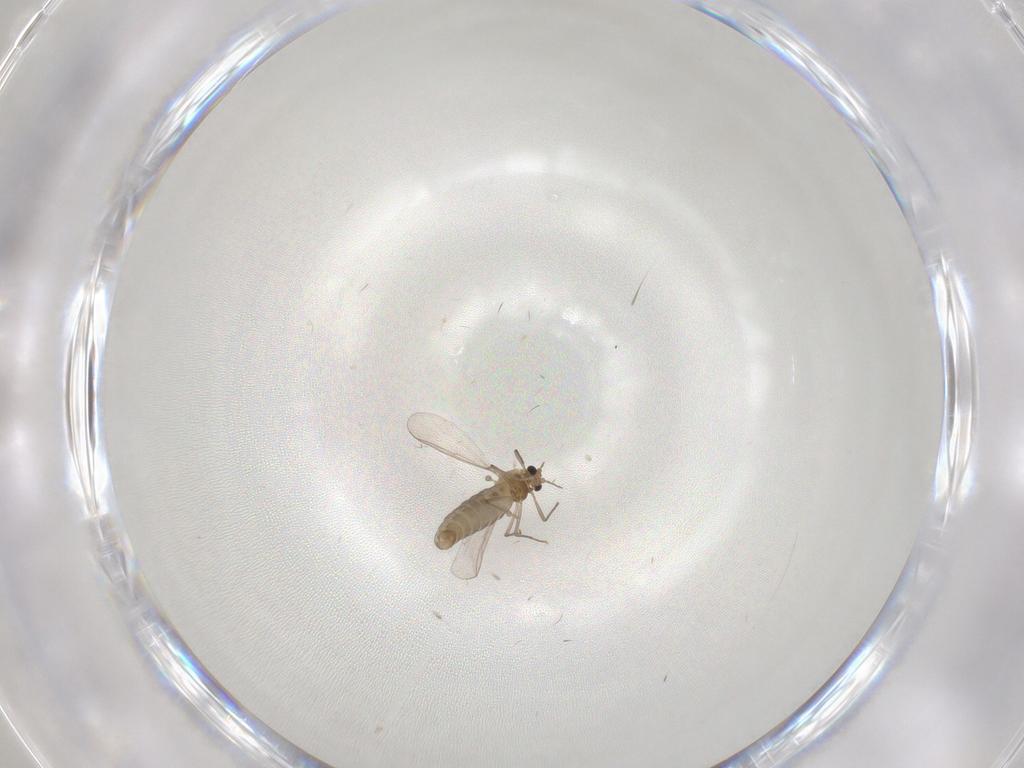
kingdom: Animalia
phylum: Arthropoda
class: Insecta
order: Diptera
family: Chironomidae
